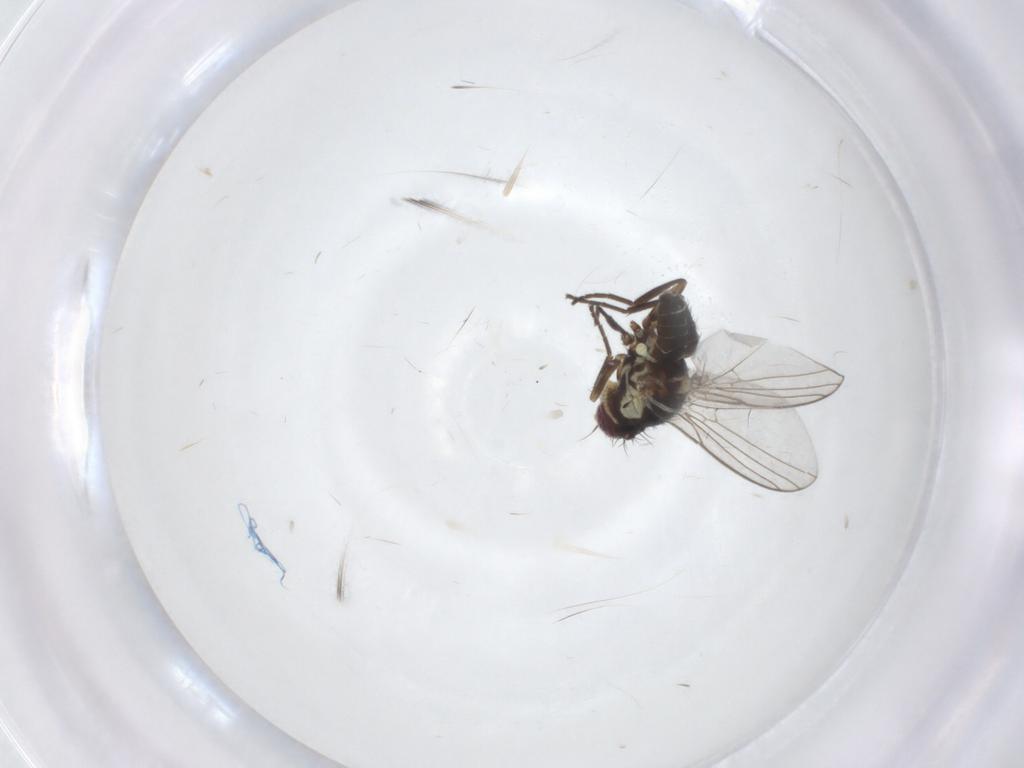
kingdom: Animalia
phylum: Arthropoda
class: Insecta
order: Diptera
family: Agromyzidae
